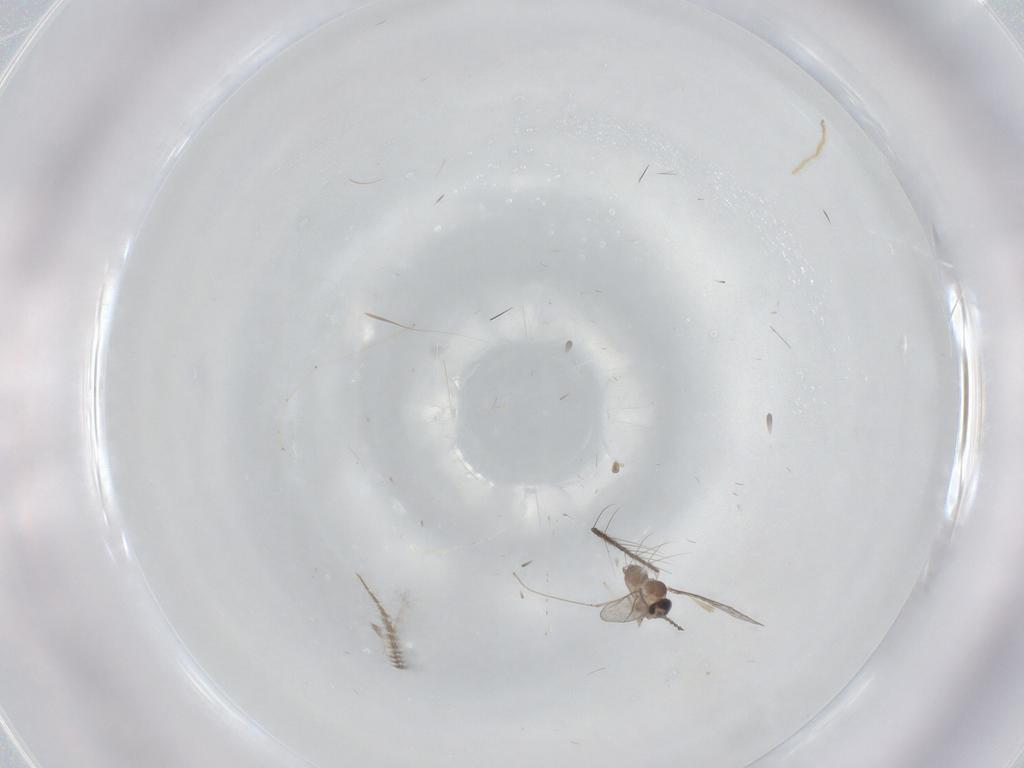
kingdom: Animalia
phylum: Arthropoda
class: Insecta
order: Diptera
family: Cecidomyiidae
